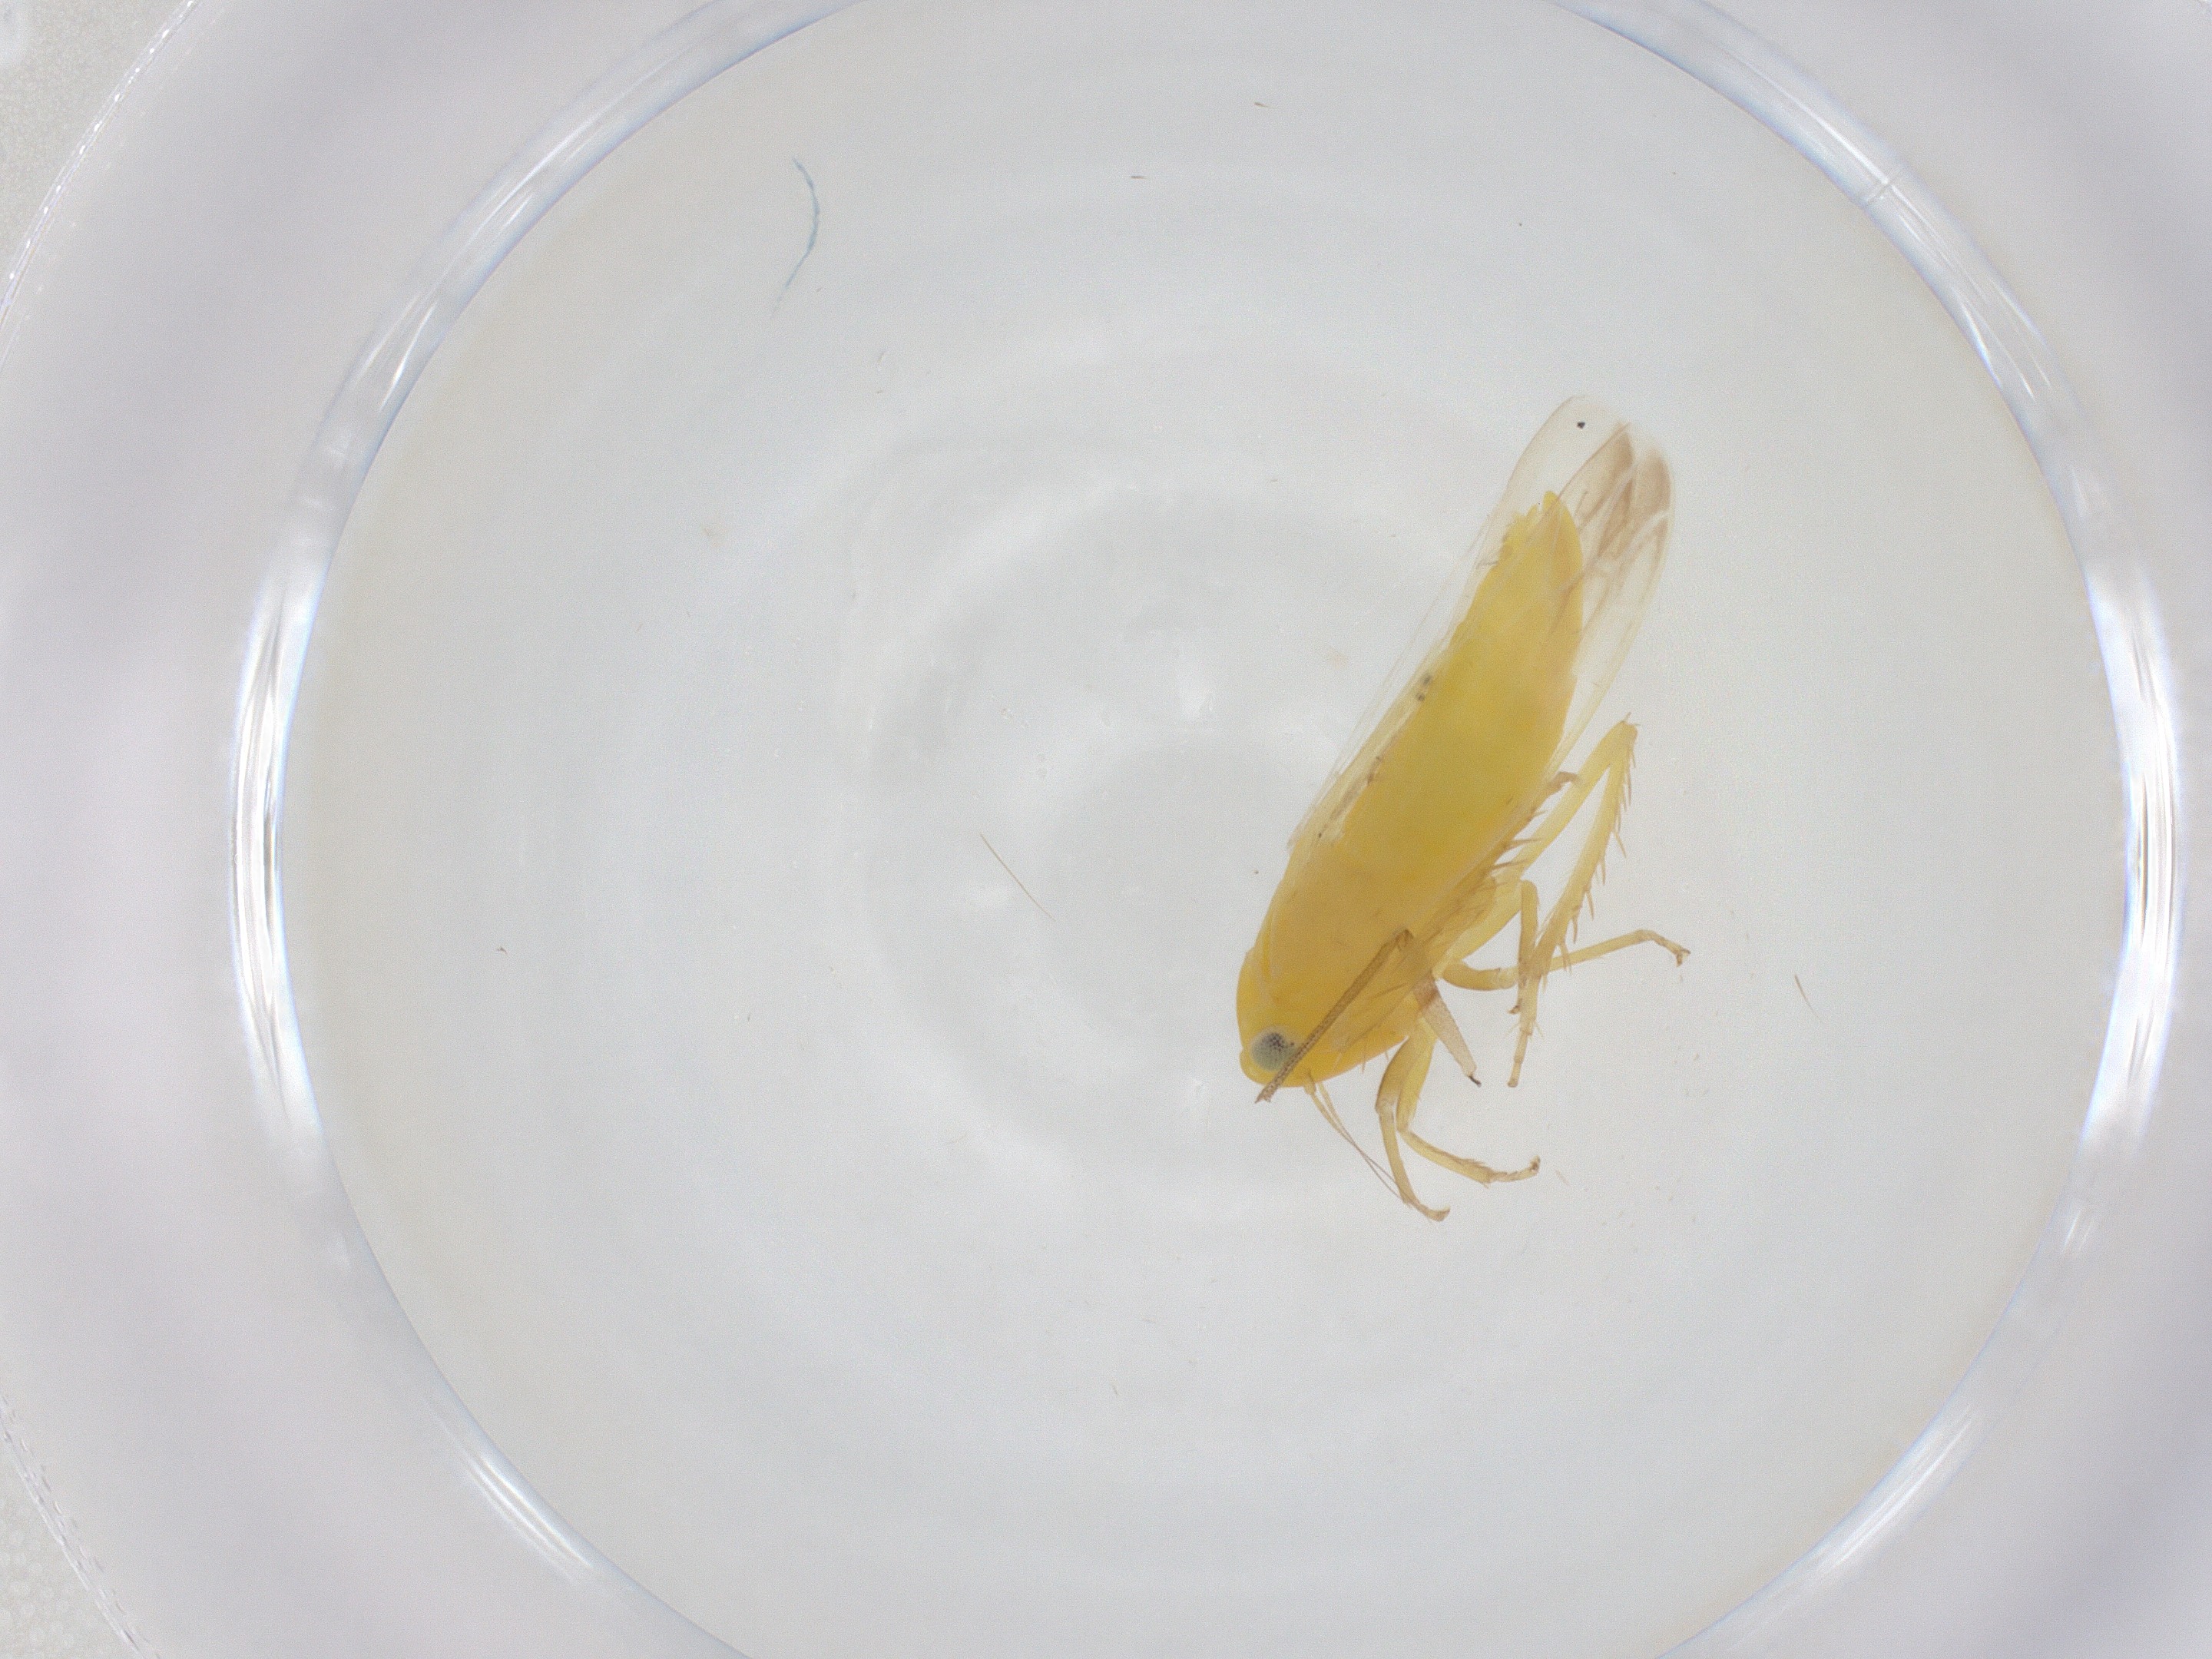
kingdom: Animalia
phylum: Arthropoda
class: Insecta
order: Hemiptera
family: Cicadellidae
